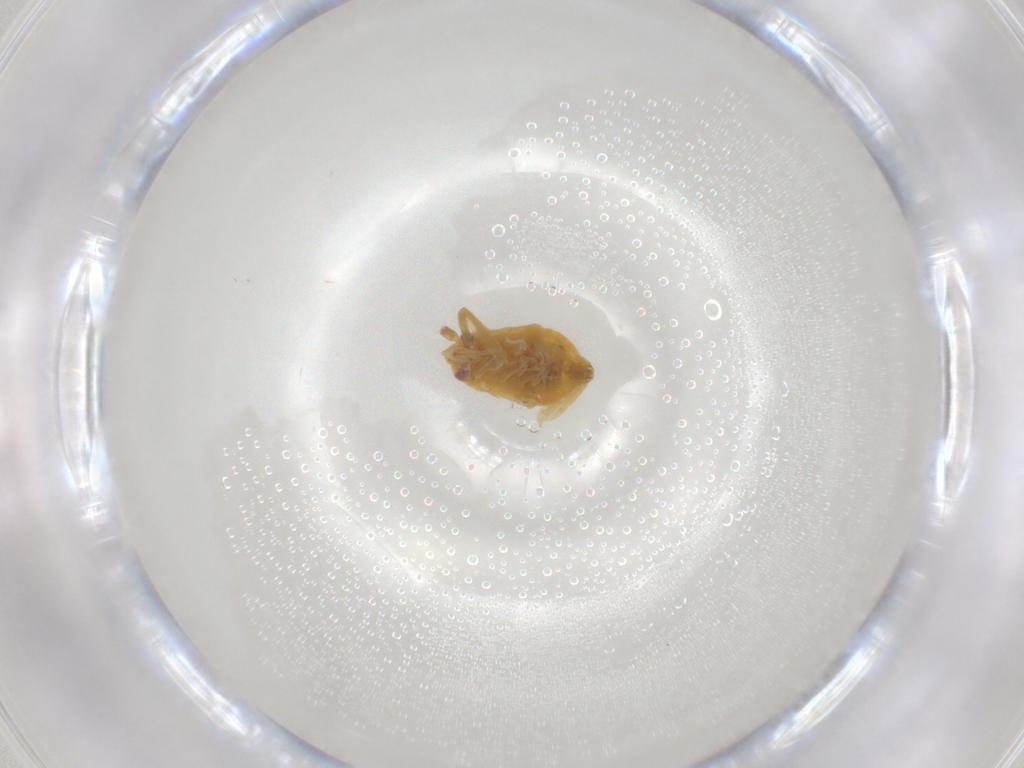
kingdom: Animalia
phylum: Arthropoda
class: Insecta
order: Hemiptera
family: Miridae
